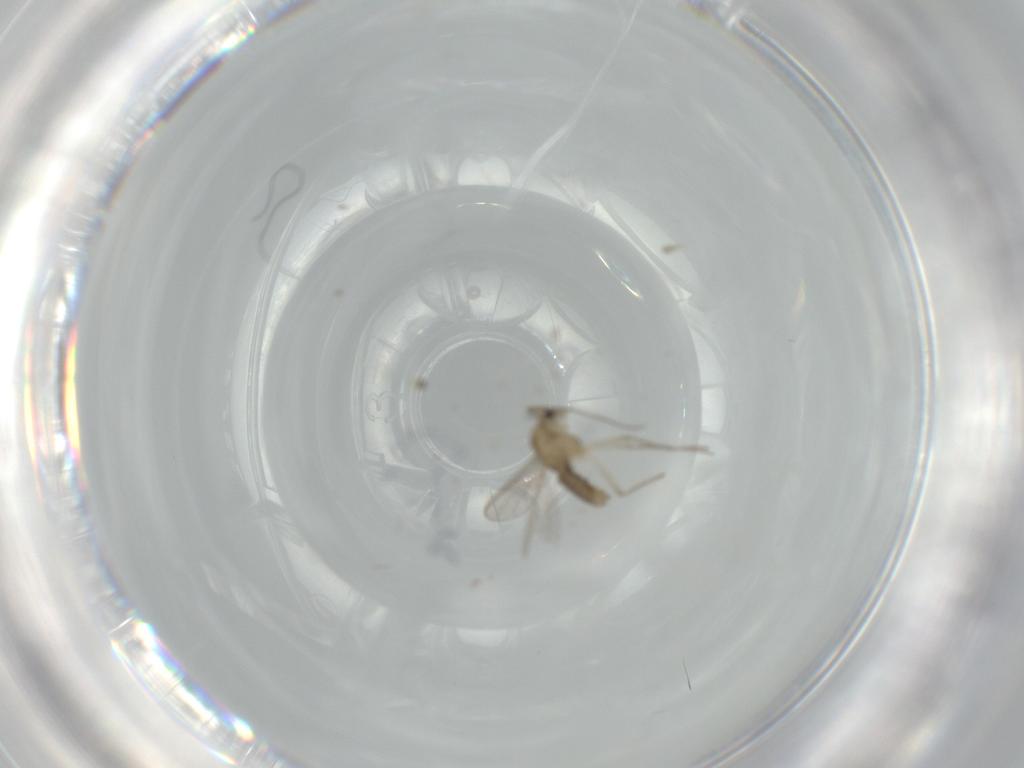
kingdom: Animalia
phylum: Arthropoda
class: Insecta
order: Diptera
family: Chironomidae
